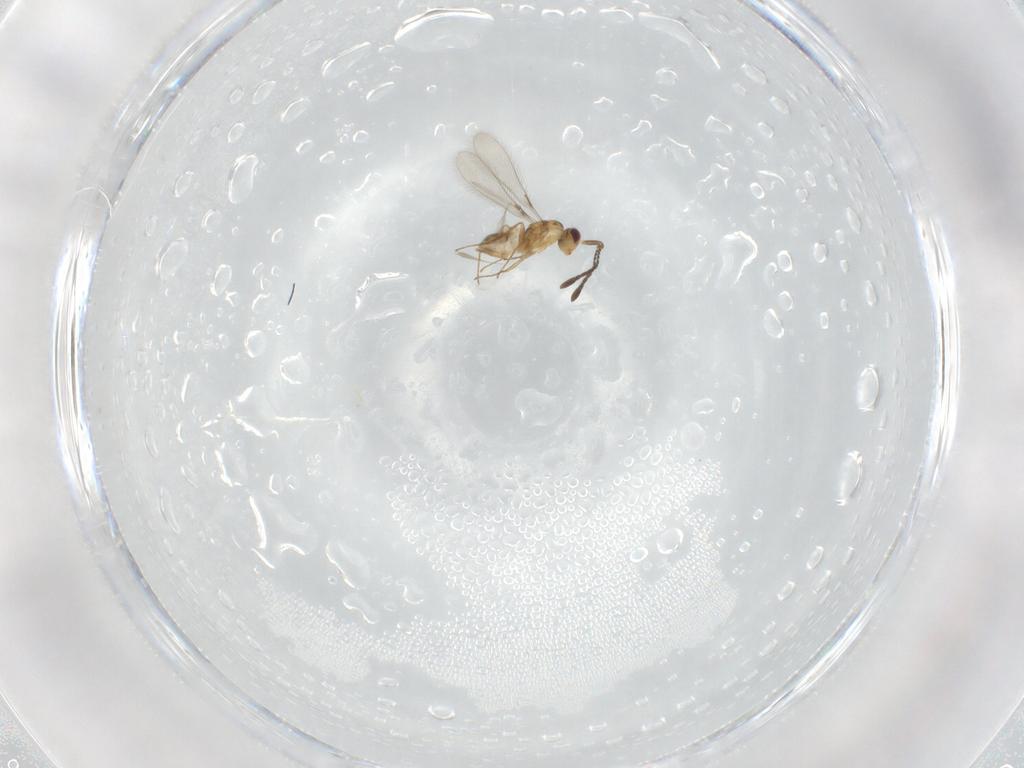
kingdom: Animalia
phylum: Arthropoda
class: Insecta
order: Hymenoptera
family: Mymaridae
